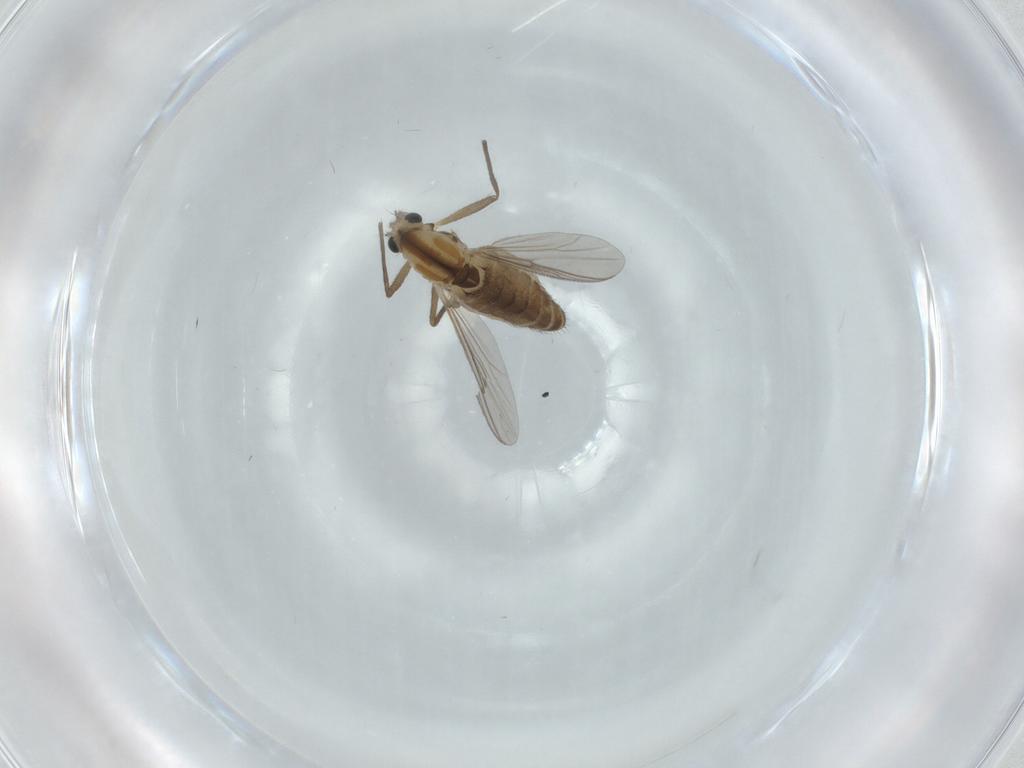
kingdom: Animalia
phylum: Arthropoda
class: Insecta
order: Diptera
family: Chironomidae
